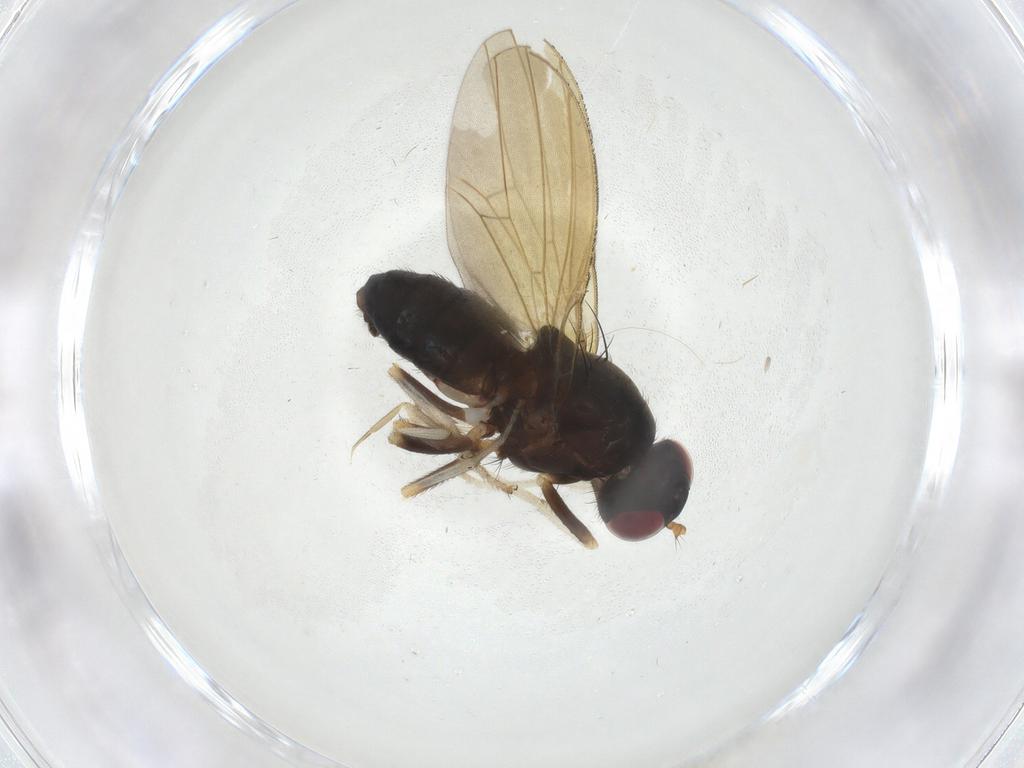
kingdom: Animalia
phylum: Arthropoda
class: Insecta
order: Diptera
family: Phoridae
